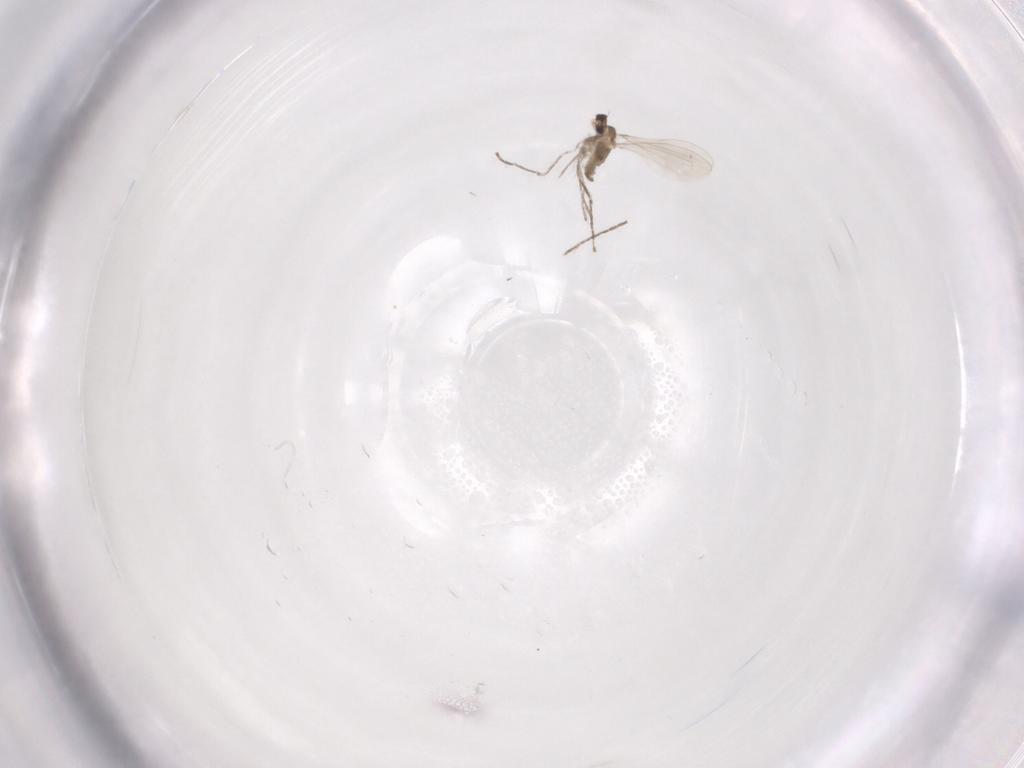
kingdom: Animalia
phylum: Arthropoda
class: Insecta
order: Diptera
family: Cecidomyiidae
